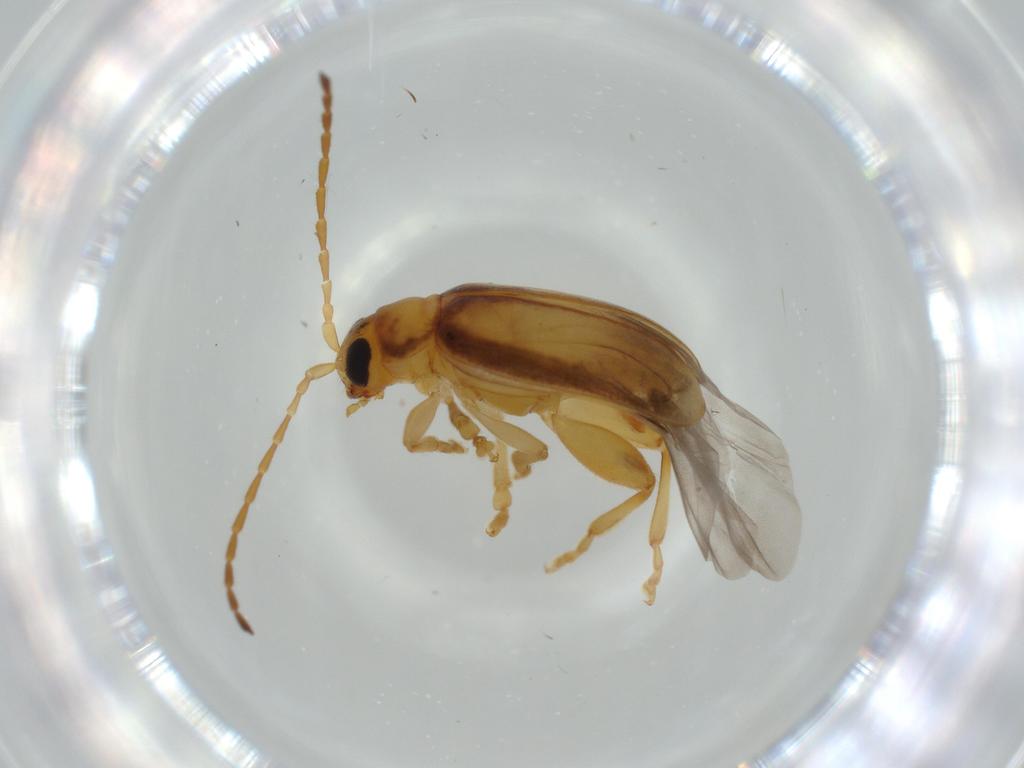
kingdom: Animalia
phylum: Arthropoda
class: Insecta
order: Coleoptera
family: Chrysomelidae
